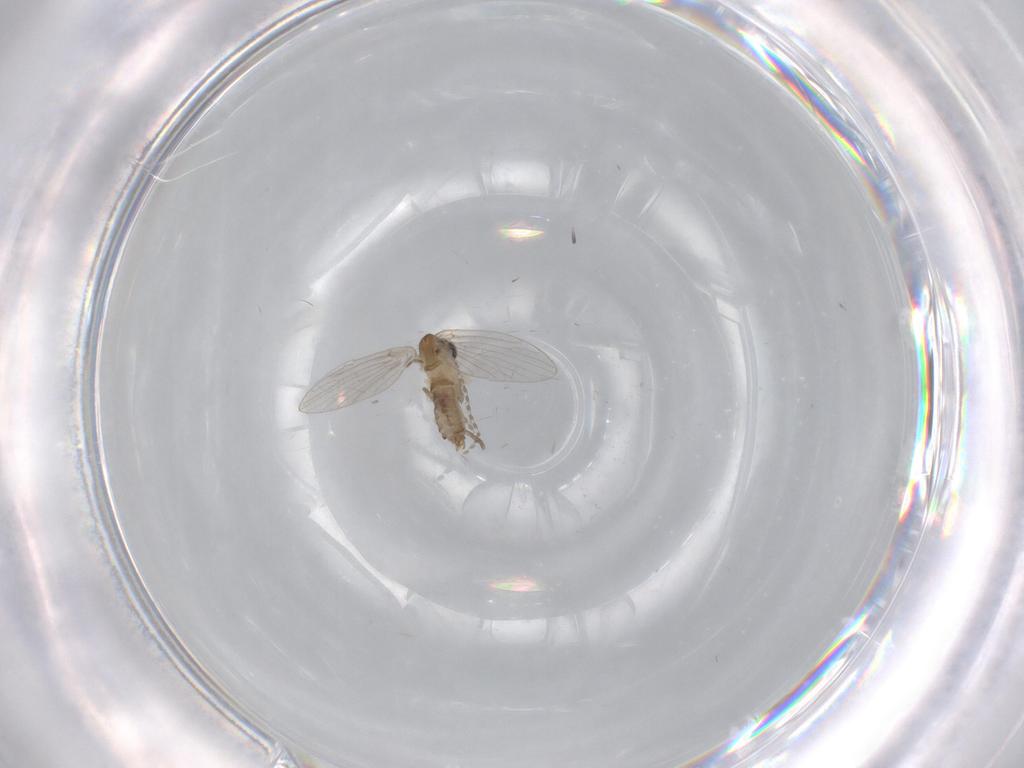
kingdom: Animalia
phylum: Arthropoda
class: Insecta
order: Diptera
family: Psychodidae
